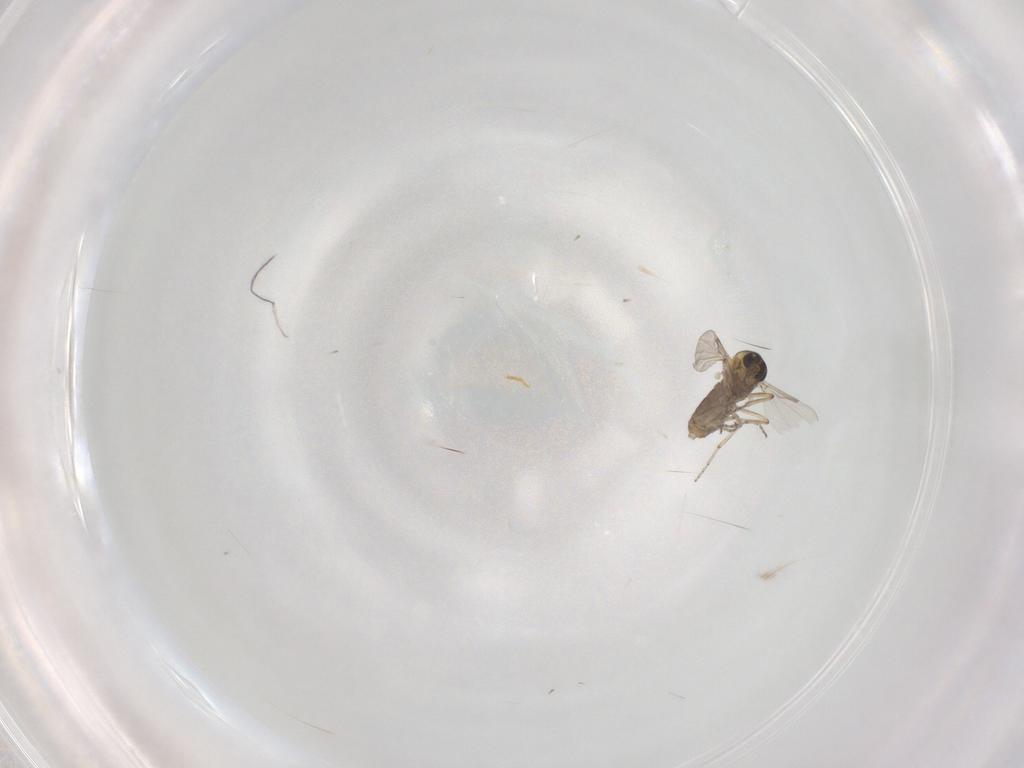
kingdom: Animalia
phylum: Arthropoda
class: Insecta
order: Diptera
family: Ceratopogonidae
